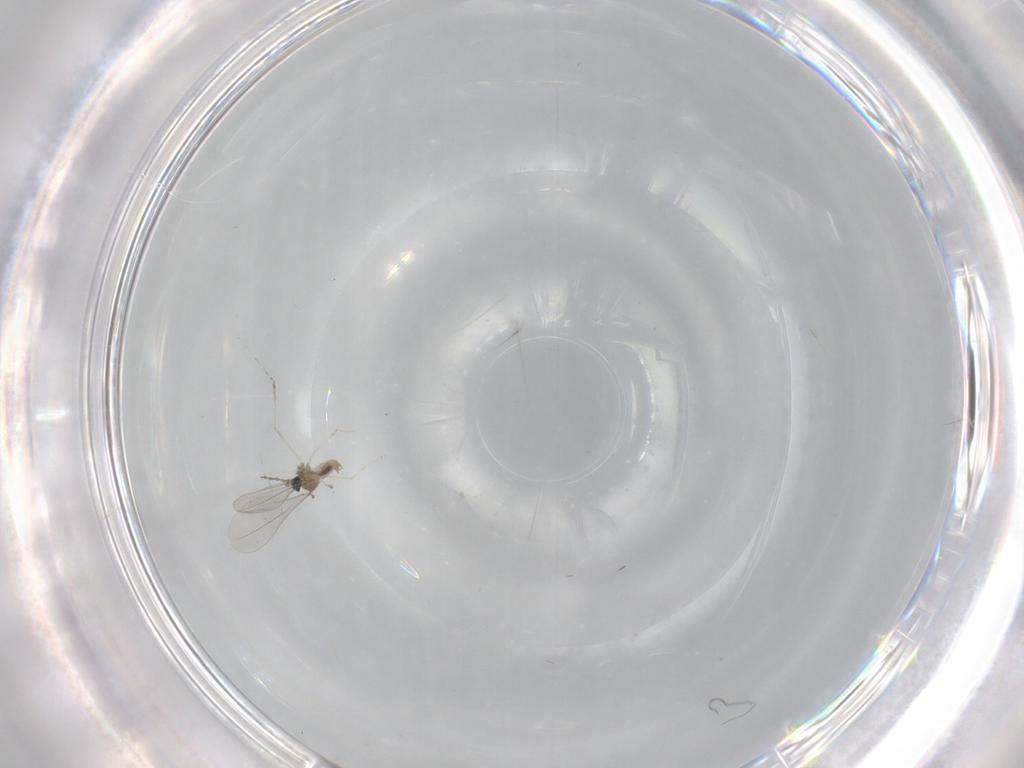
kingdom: Animalia
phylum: Arthropoda
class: Insecta
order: Diptera
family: Cecidomyiidae
